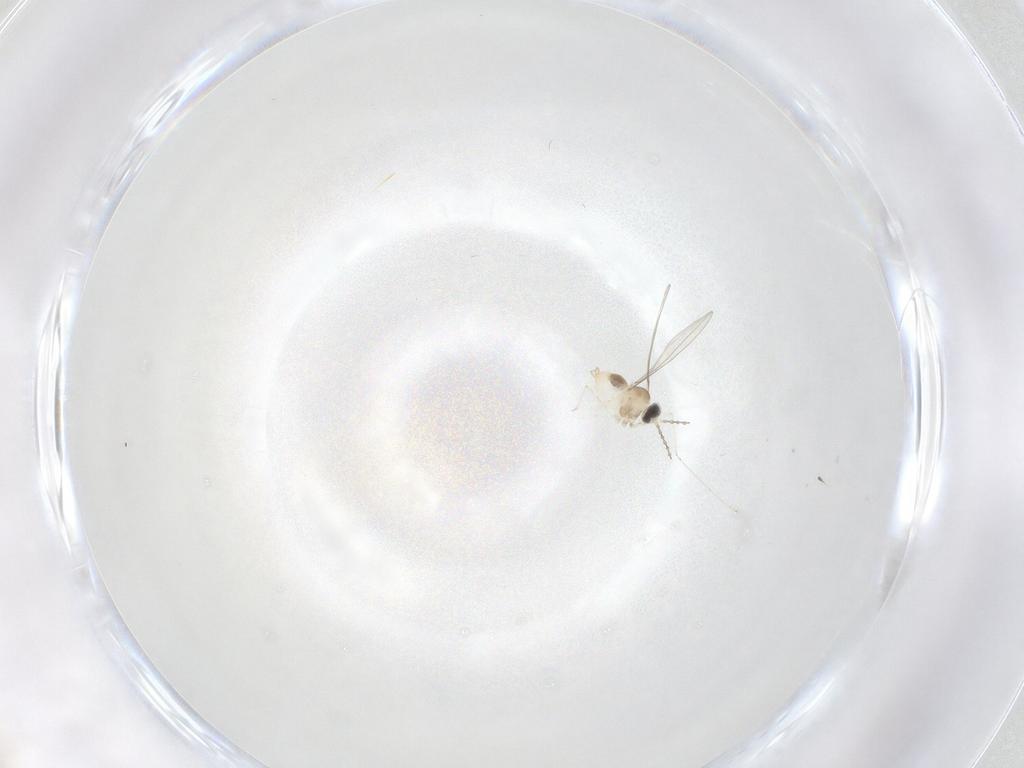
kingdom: Animalia
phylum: Arthropoda
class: Insecta
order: Diptera
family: Cecidomyiidae
